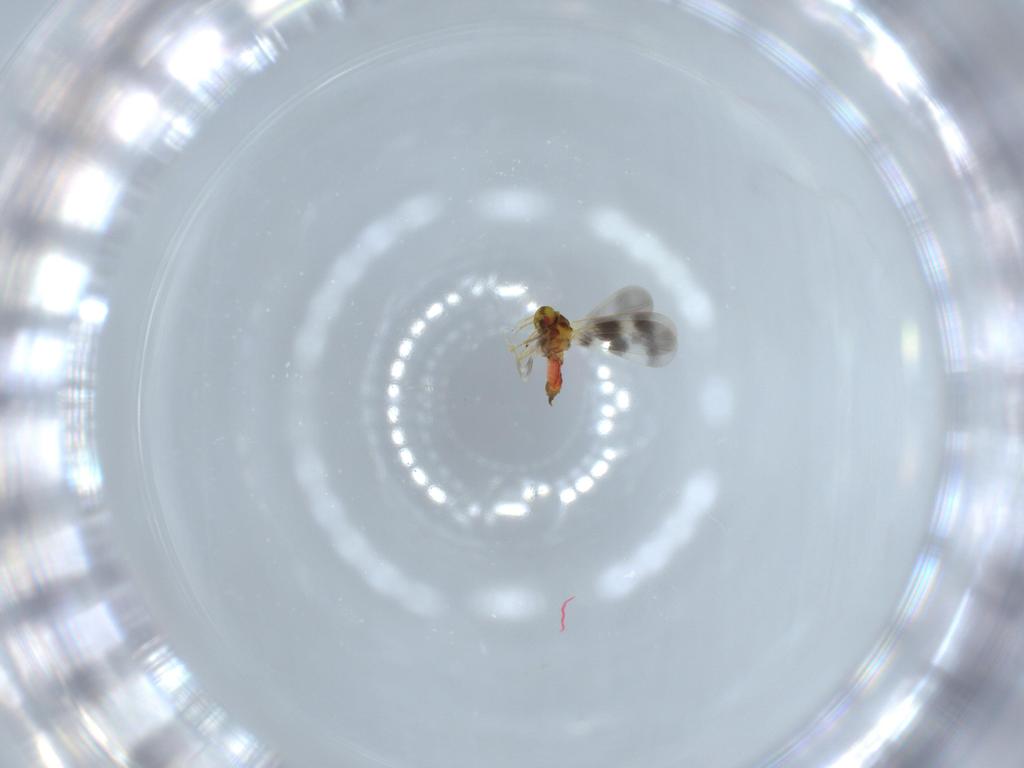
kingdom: Animalia
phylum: Arthropoda
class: Insecta
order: Hemiptera
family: Aleyrodidae
